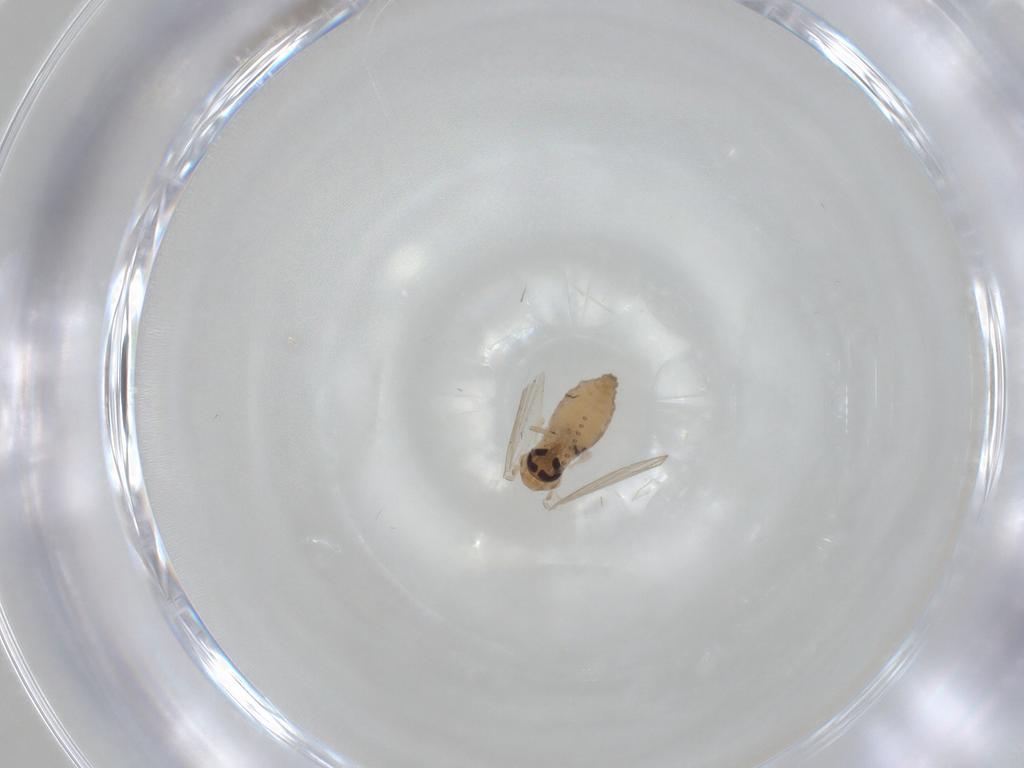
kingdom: Animalia
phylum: Arthropoda
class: Insecta
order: Diptera
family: Psychodidae
